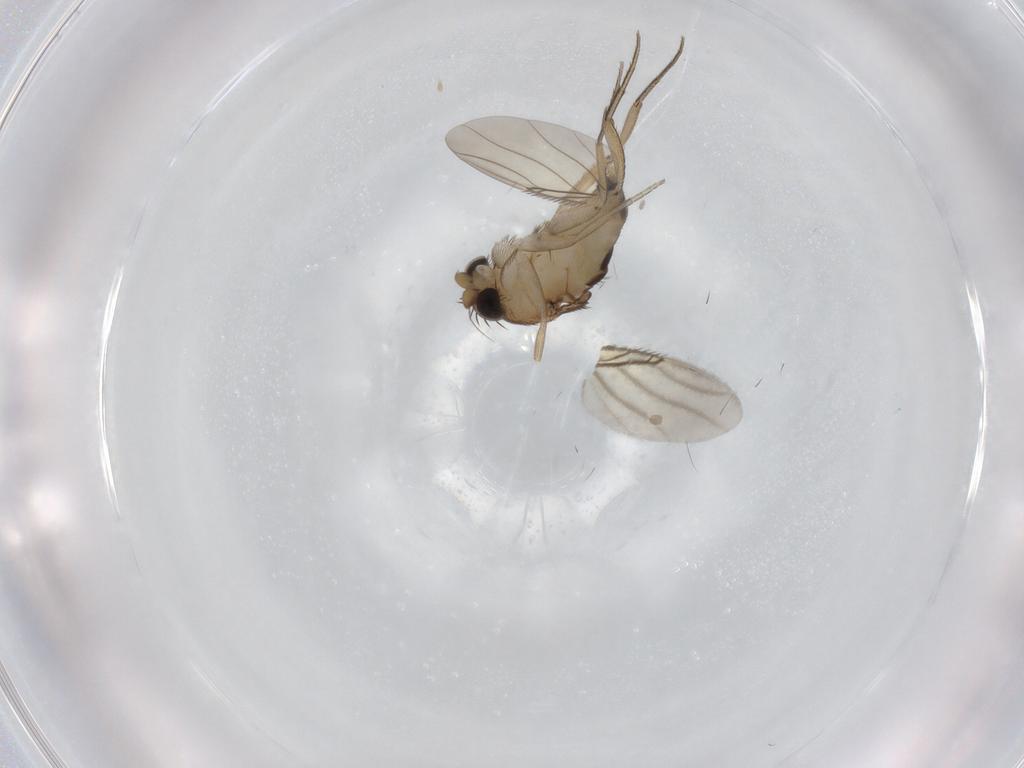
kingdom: Animalia
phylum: Arthropoda
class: Insecta
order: Diptera
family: Phoridae
